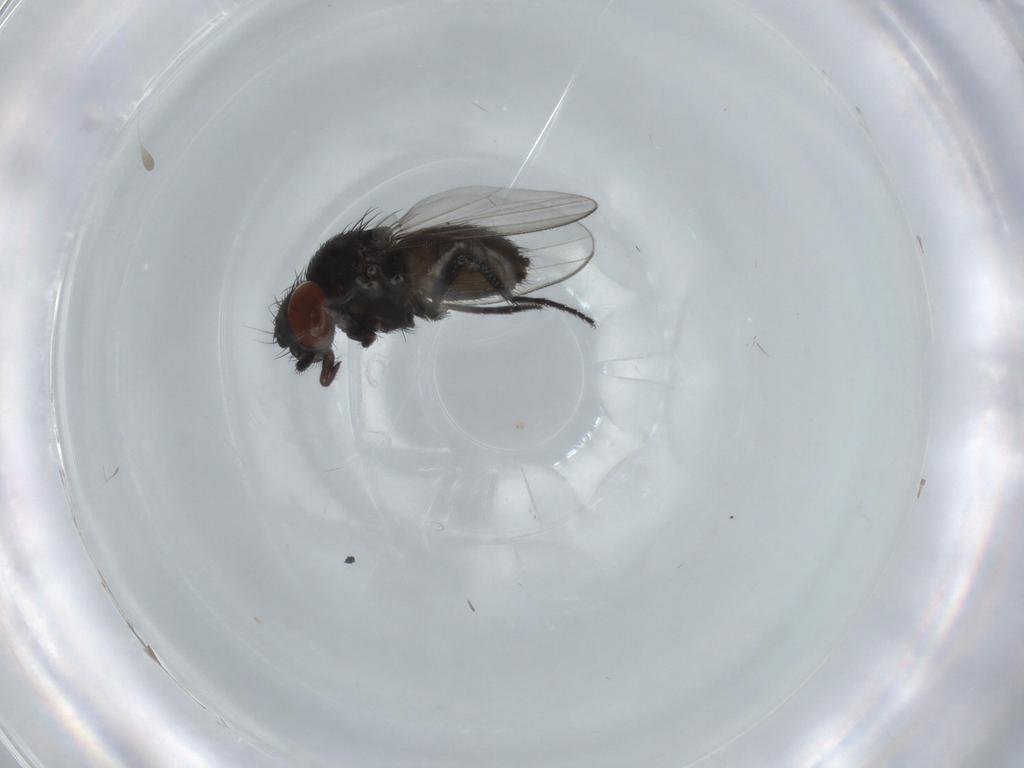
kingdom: Animalia
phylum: Arthropoda
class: Insecta
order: Diptera
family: Milichiidae
